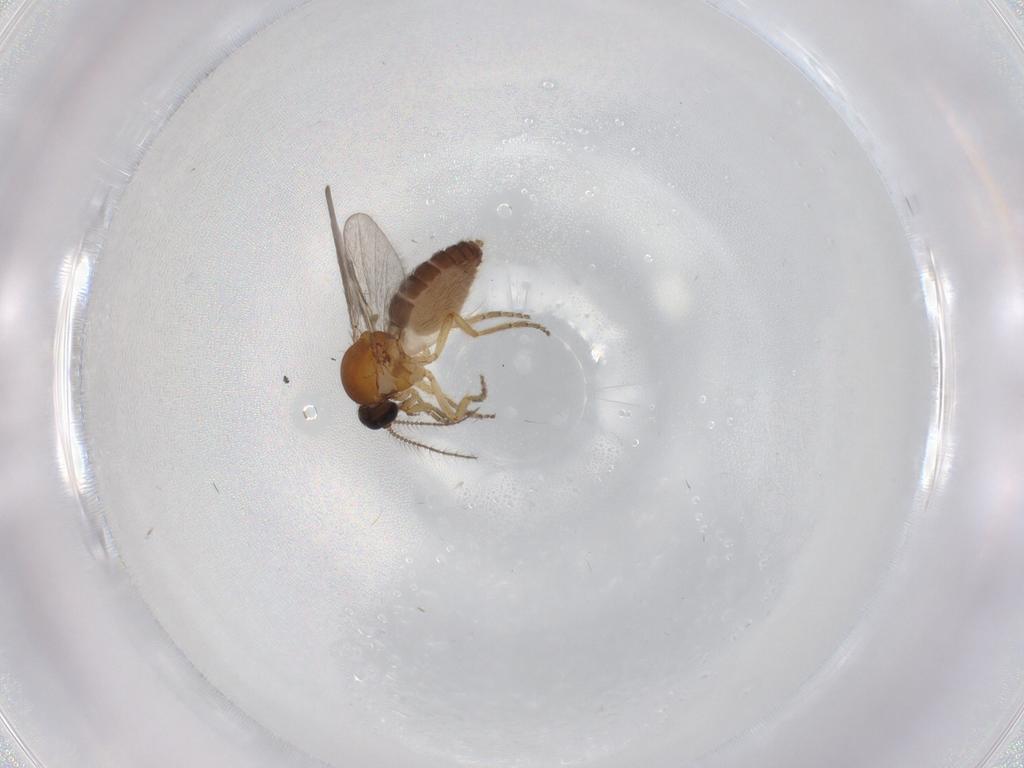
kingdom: Animalia
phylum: Arthropoda
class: Insecta
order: Diptera
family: Ceratopogonidae
